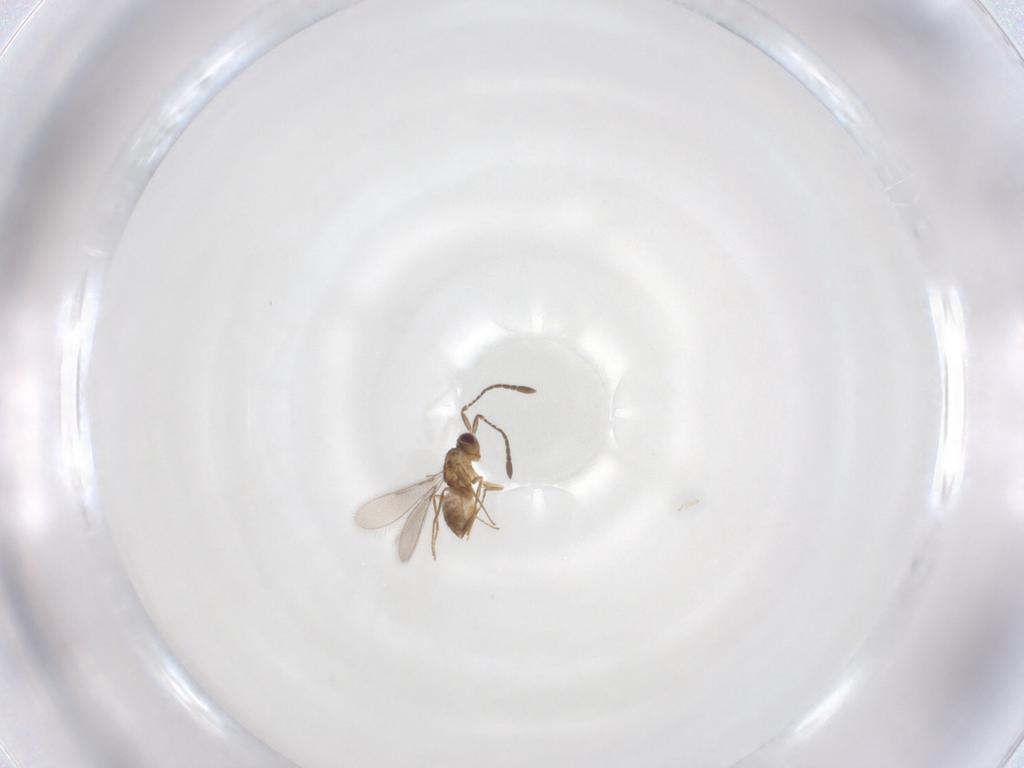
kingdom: Animalia
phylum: Arthropoda
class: Insecta
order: Hymenoptera
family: Mymaridae
